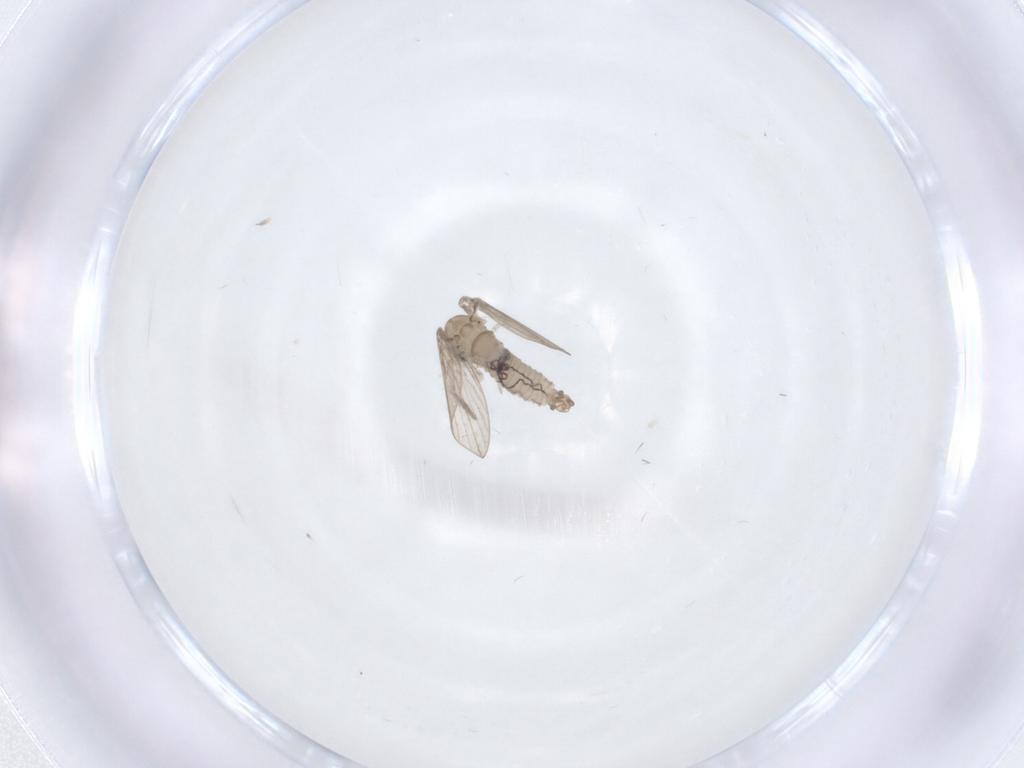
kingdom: Animalia
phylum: Arthropoda
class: Insecta
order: Diptera
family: Psychodidae
